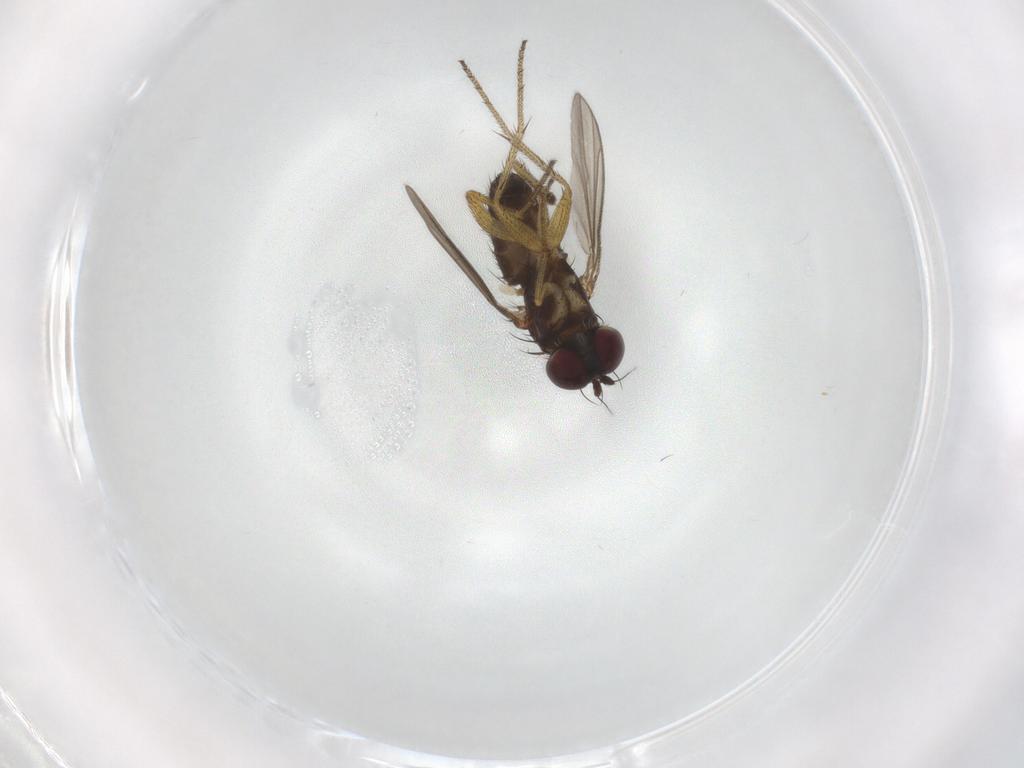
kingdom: Animalia
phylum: Arthropoda
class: Insecta
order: Diptera
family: Dolichopodidae
